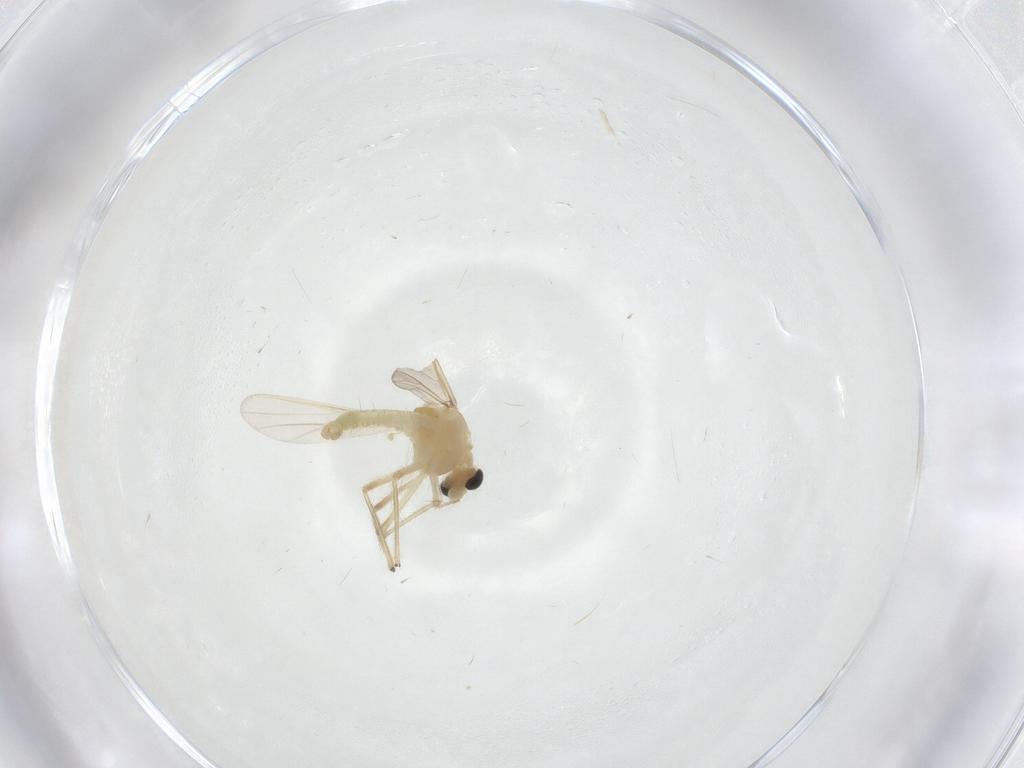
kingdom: Animalia
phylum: Arthropoda
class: Insecta
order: Diptera
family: Chironomidae
